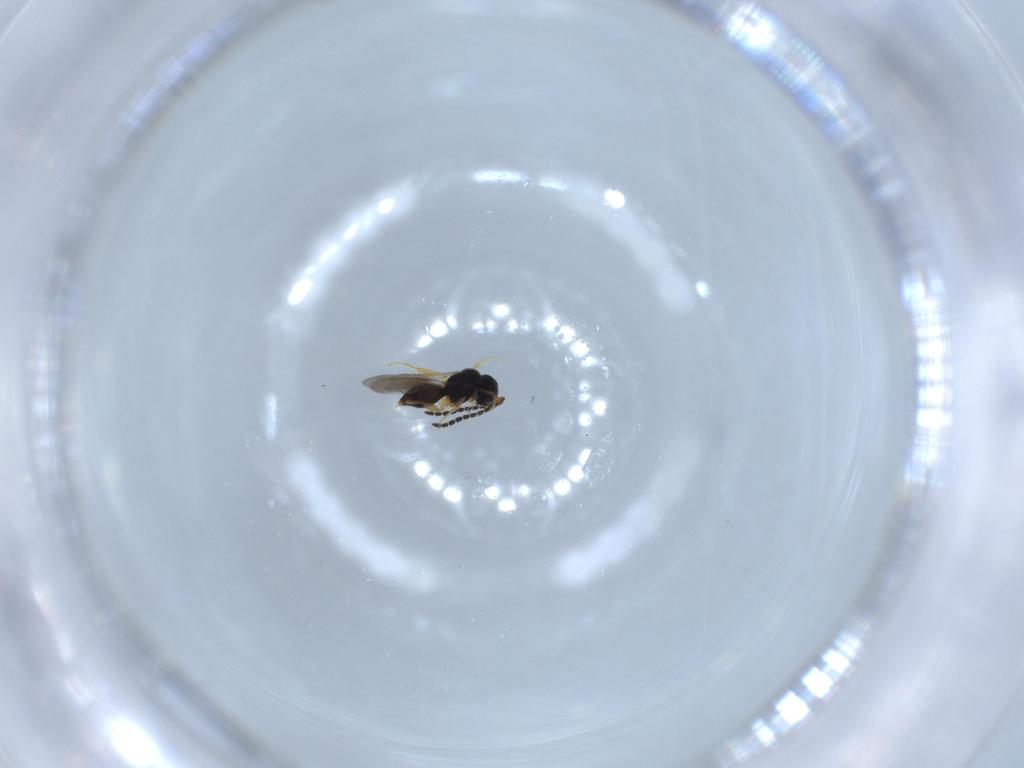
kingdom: Animalia
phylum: Arthropoda
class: Insecta
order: Hymenoptera
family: Scelionidae
